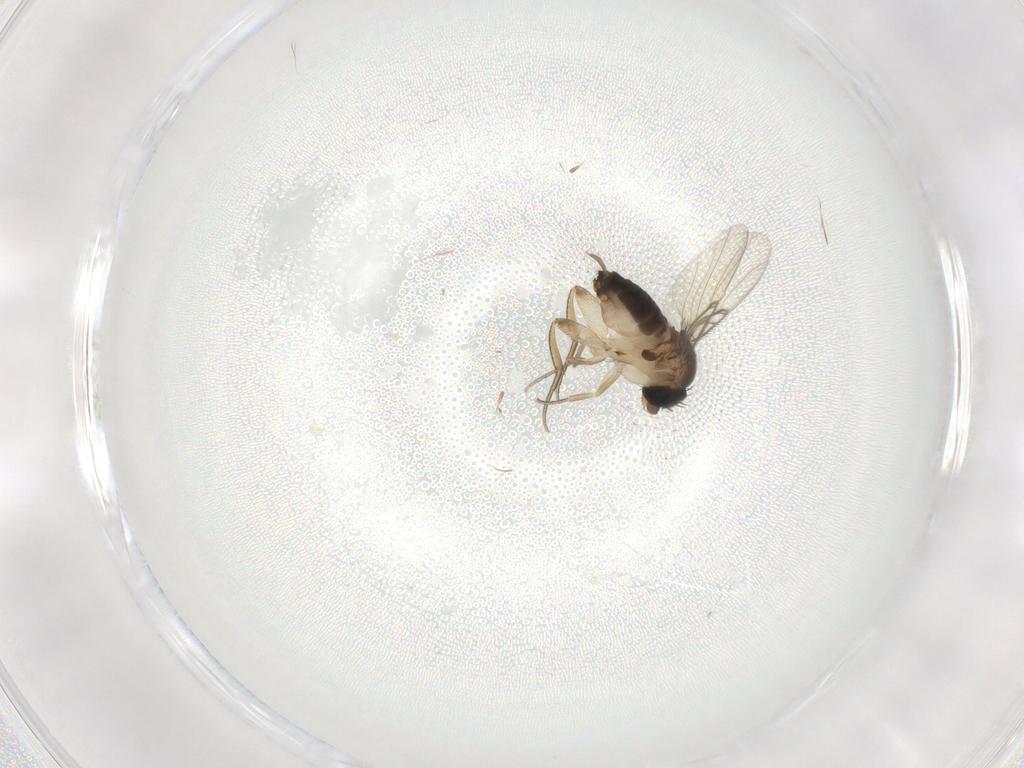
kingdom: Animalia
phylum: Arthropoda
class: Insecta
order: Diptera
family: Phoridae
